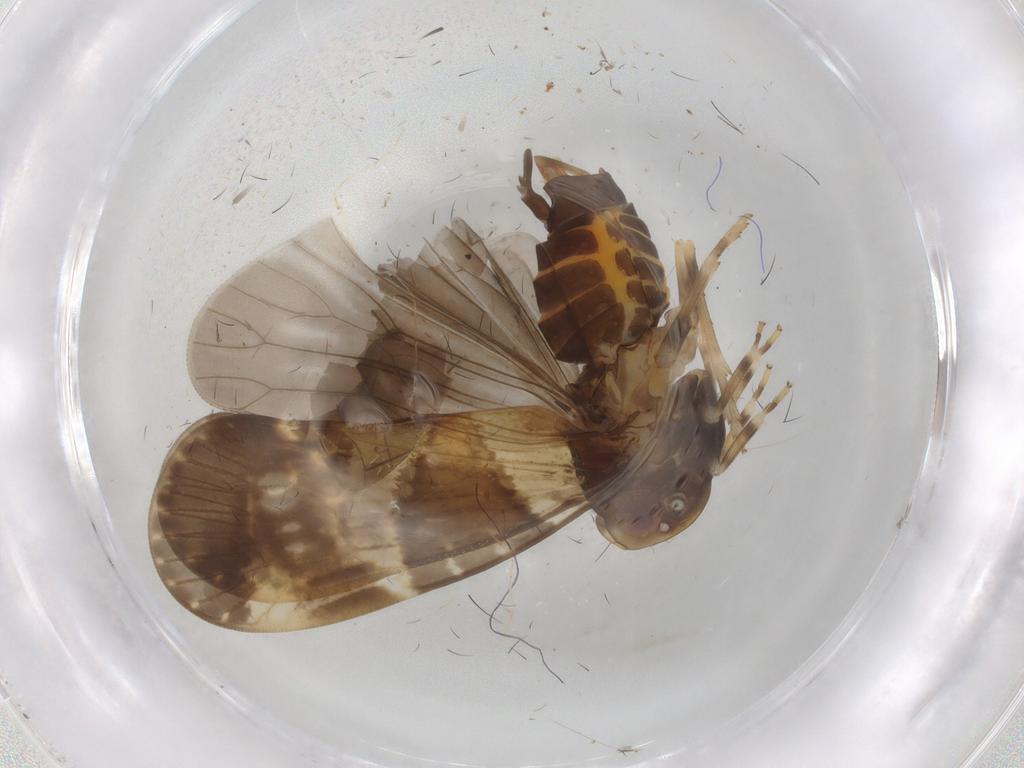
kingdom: Animalia
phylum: Arthropoda
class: Insecta
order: Hemiptera
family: Cixiidae
